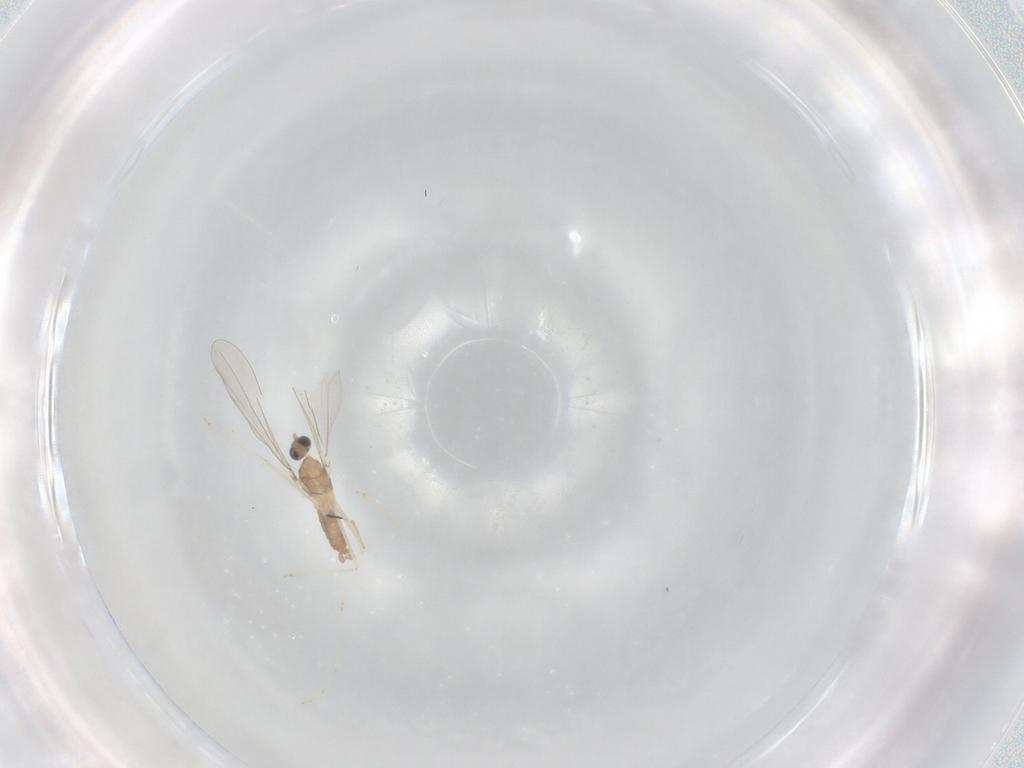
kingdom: Animalia
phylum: Arthropoda
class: Insecta
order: Diptera
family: Cecidomyiidae
